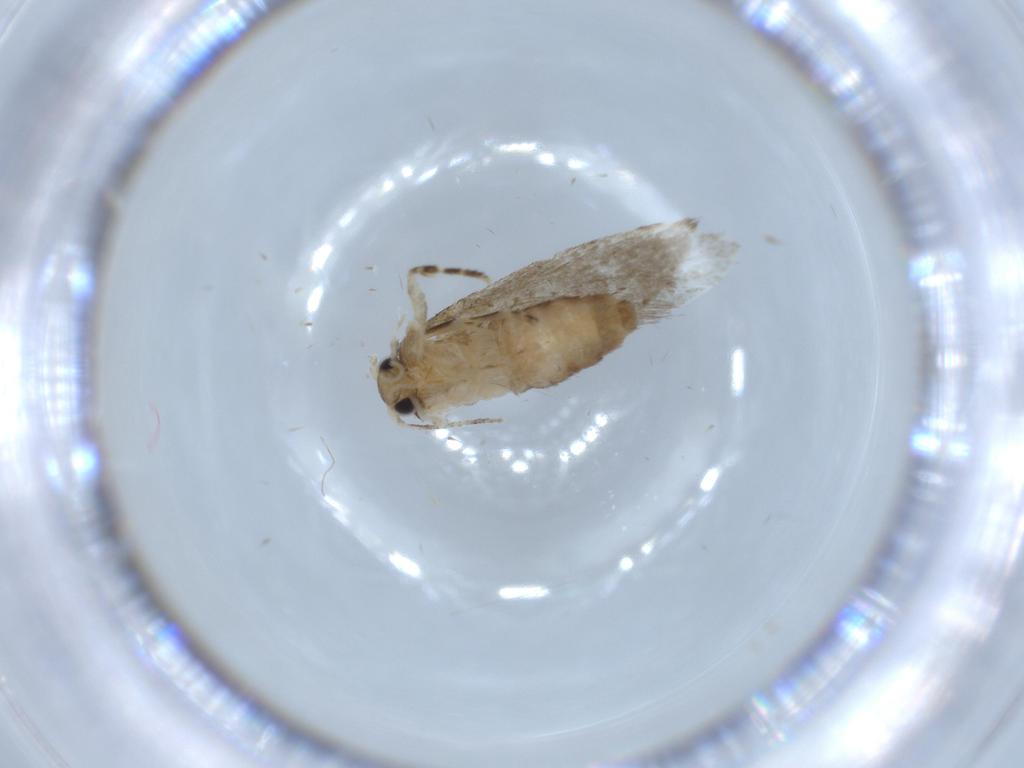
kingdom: Animalia
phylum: Arthropoda
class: Insecta
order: Lepidoptera
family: Tineidae
